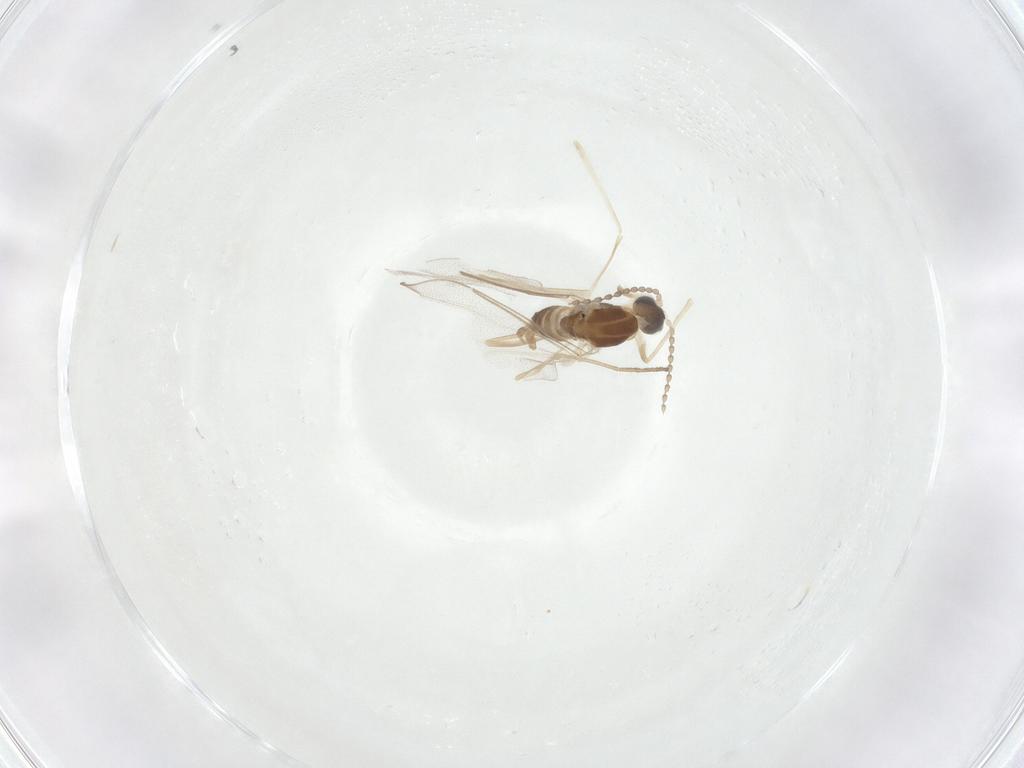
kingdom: Animalia
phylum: Arthropoda
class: Insecta
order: Diptera
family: Cecidomyiidae
